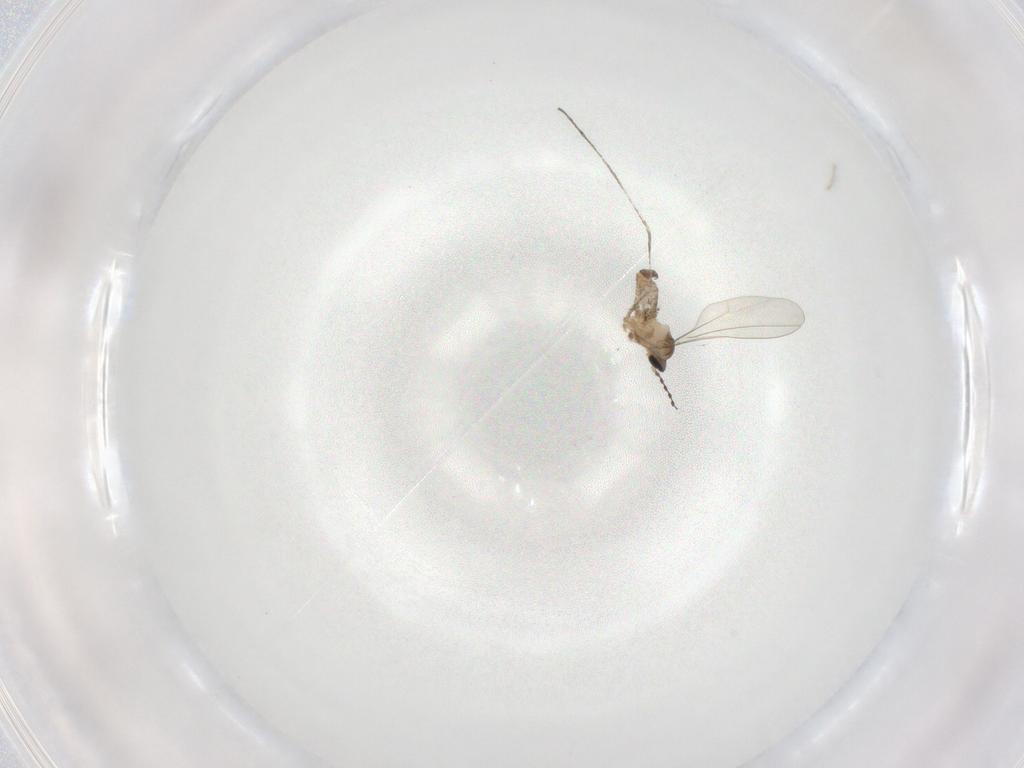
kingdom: Animalia
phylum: Arthropoda
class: Insecta
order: Diptera
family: Cecidomyiidae
